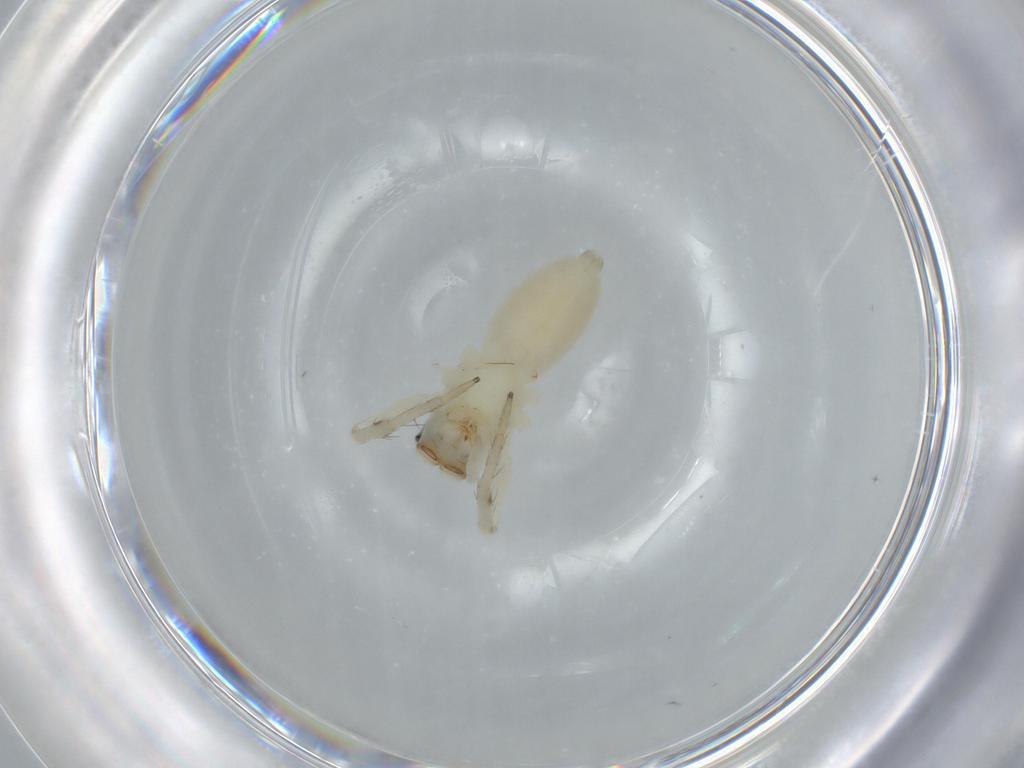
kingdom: Animalia
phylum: Arthropoda
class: Arachnida
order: Araneae
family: Salticidae
